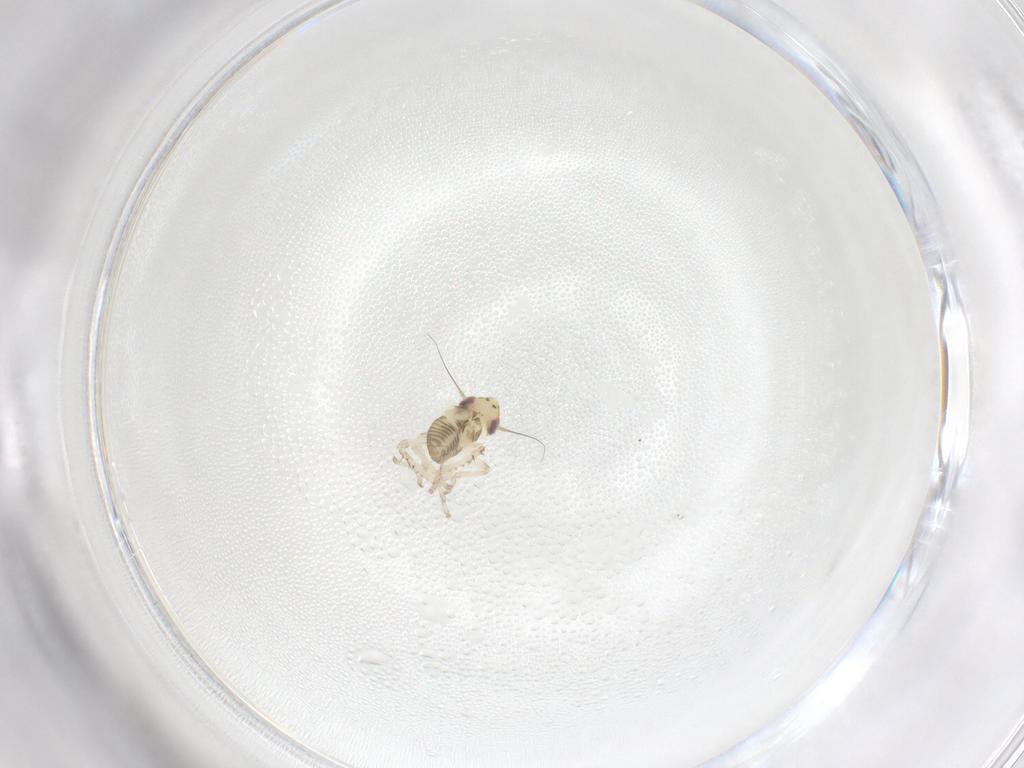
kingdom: Animalia
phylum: Arthropoda
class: Insecta
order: Hemiptera
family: Cicadellidae
